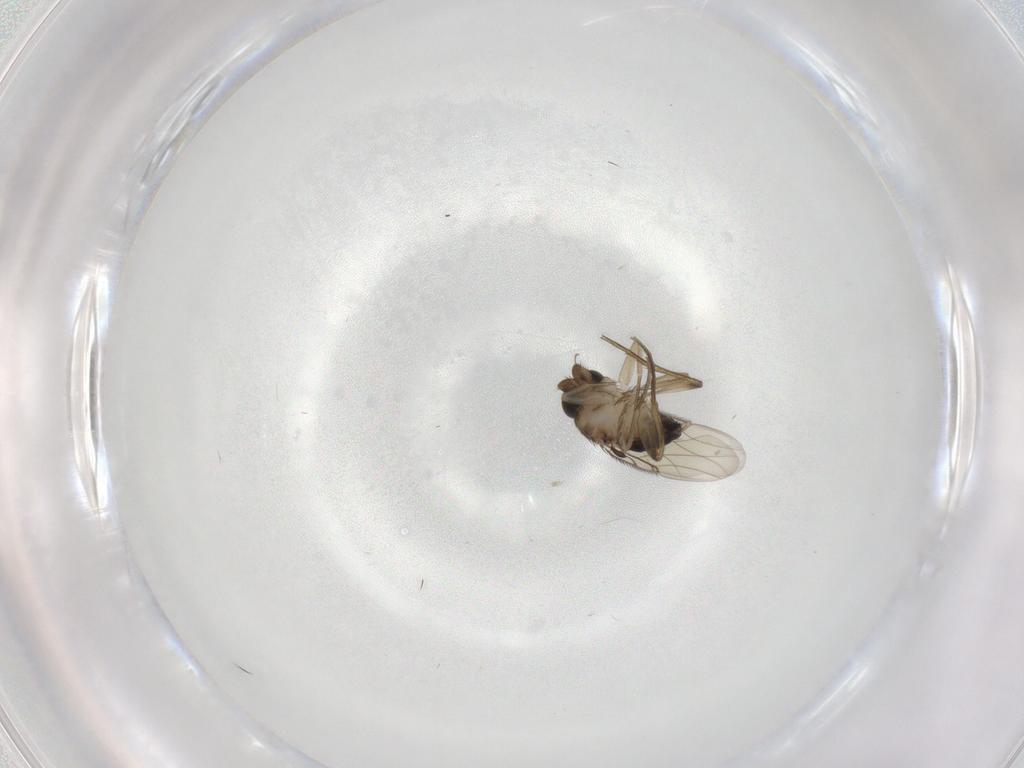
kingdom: Animalia
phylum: Arthropoda
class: Insecta
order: Diptera
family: Phoridae
